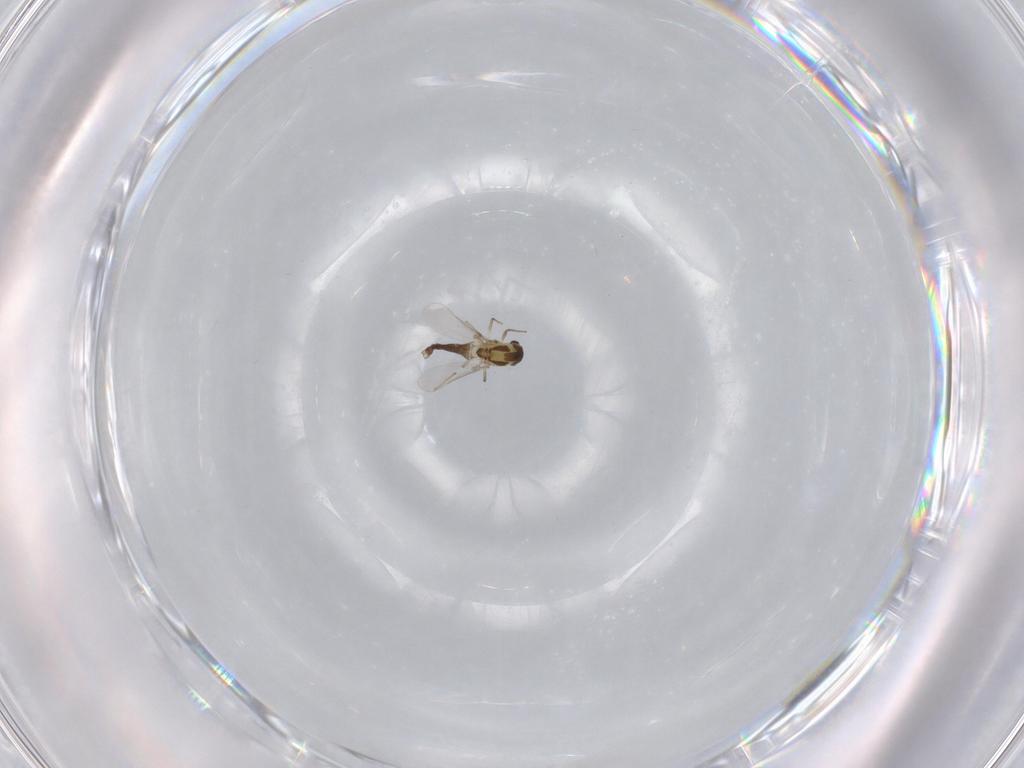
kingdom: Animalia
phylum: Arthropoda
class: Insecta
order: Diptera
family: Chironomidae
